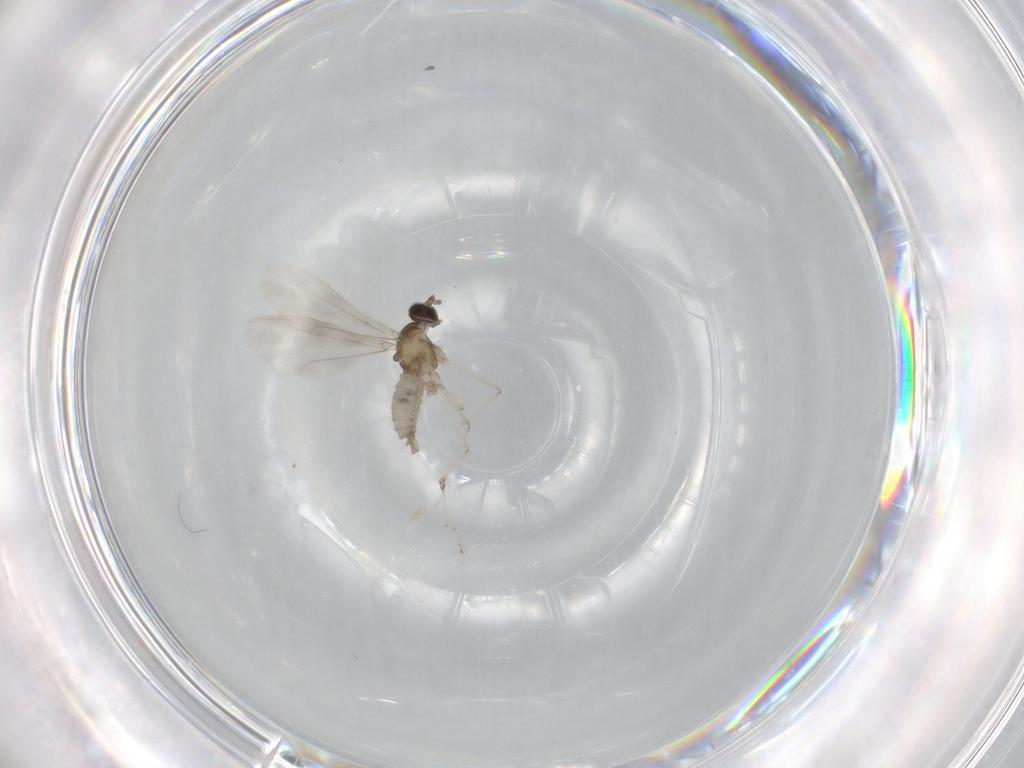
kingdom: Animalia
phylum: Arthropoda
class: Insecta
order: Diptera
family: Cecidomyiidae
